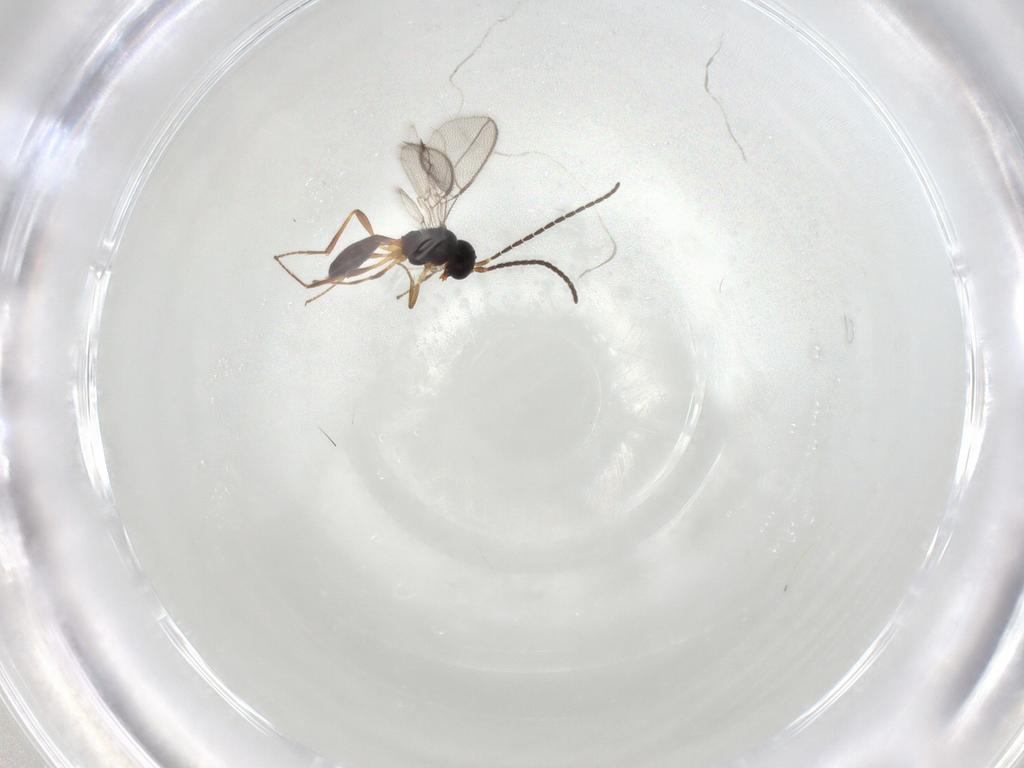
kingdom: Animalia
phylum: Arthropoda
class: Insecta
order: Hymenoptera
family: Braconidae
